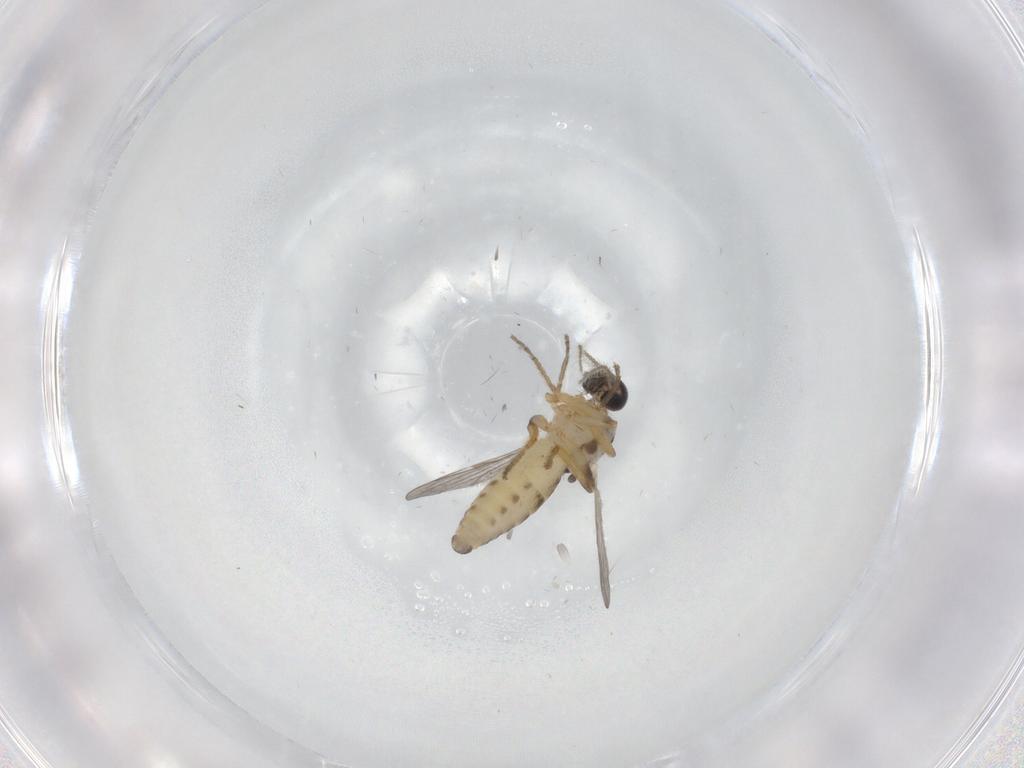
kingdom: Animalia
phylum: Arthropoda
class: Insecta
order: Diptera
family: Ceratopogonidae
